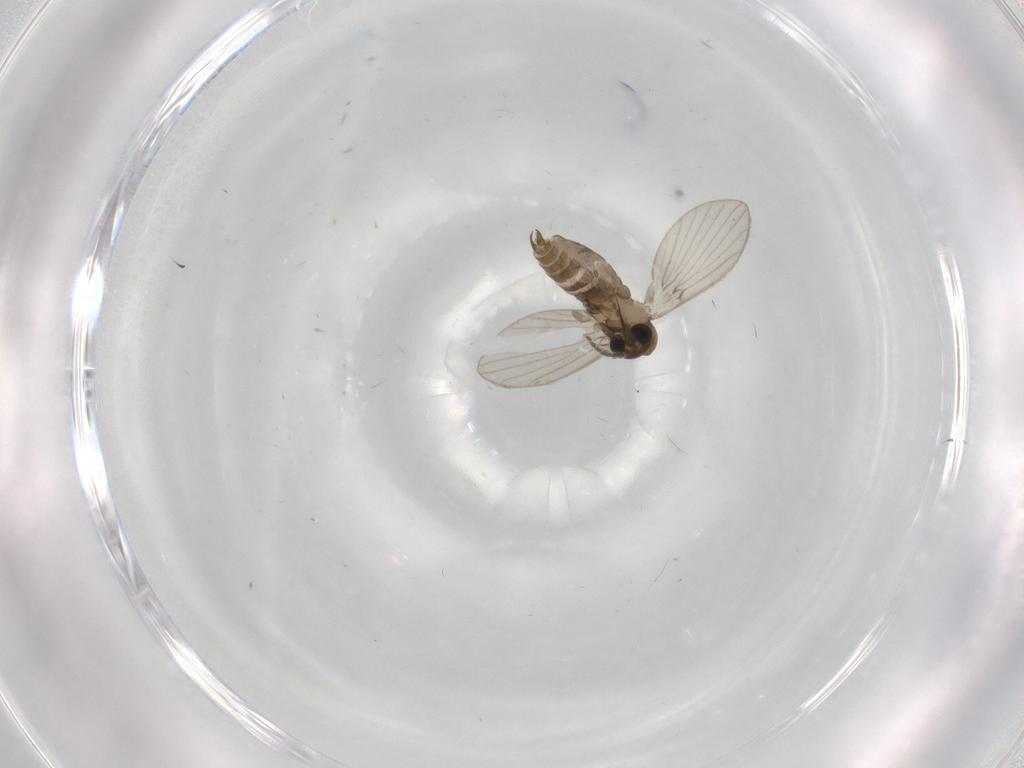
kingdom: Animalia
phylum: Arthropoda
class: Insecta
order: Diptera
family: Psychodidae
